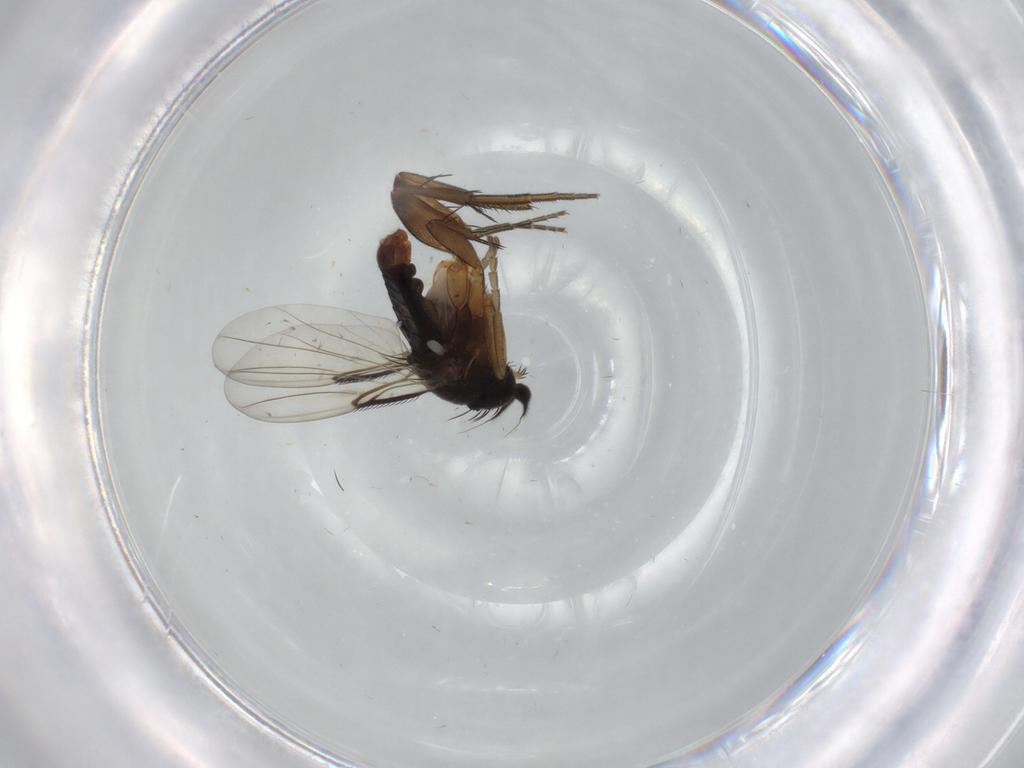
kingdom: Animalia
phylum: Arthropoda
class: Insecta
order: Diptera
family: Phoridae
